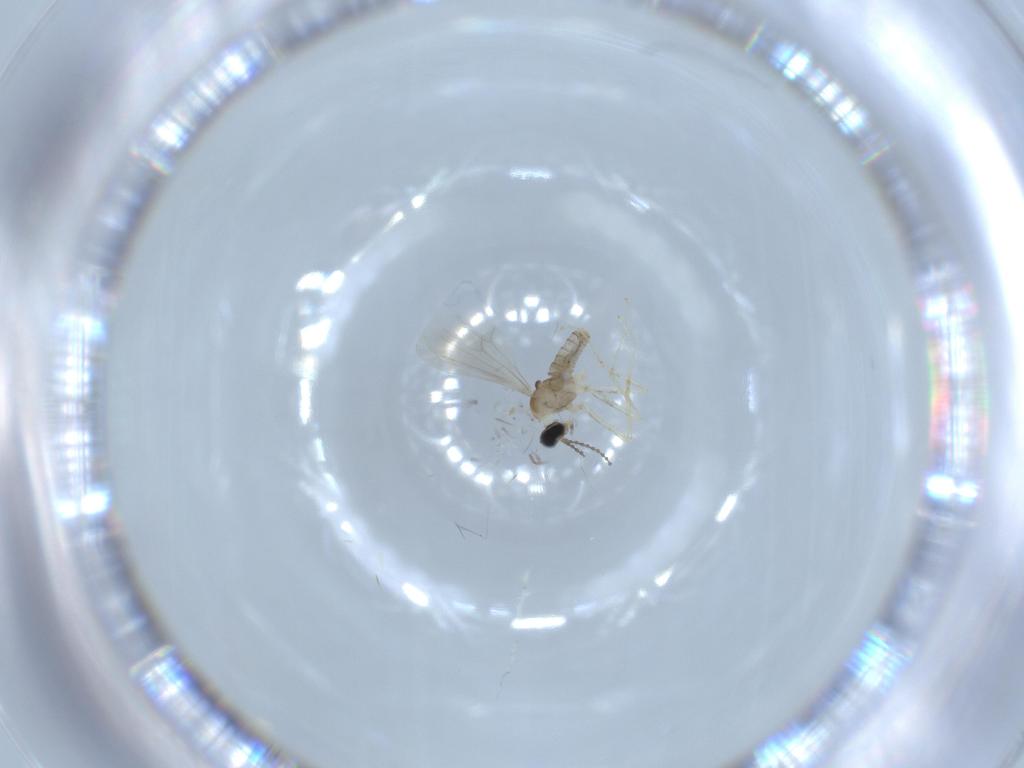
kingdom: Animalia
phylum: Arthropoda
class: Insecta
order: Diptera
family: Cecidomyiidae
